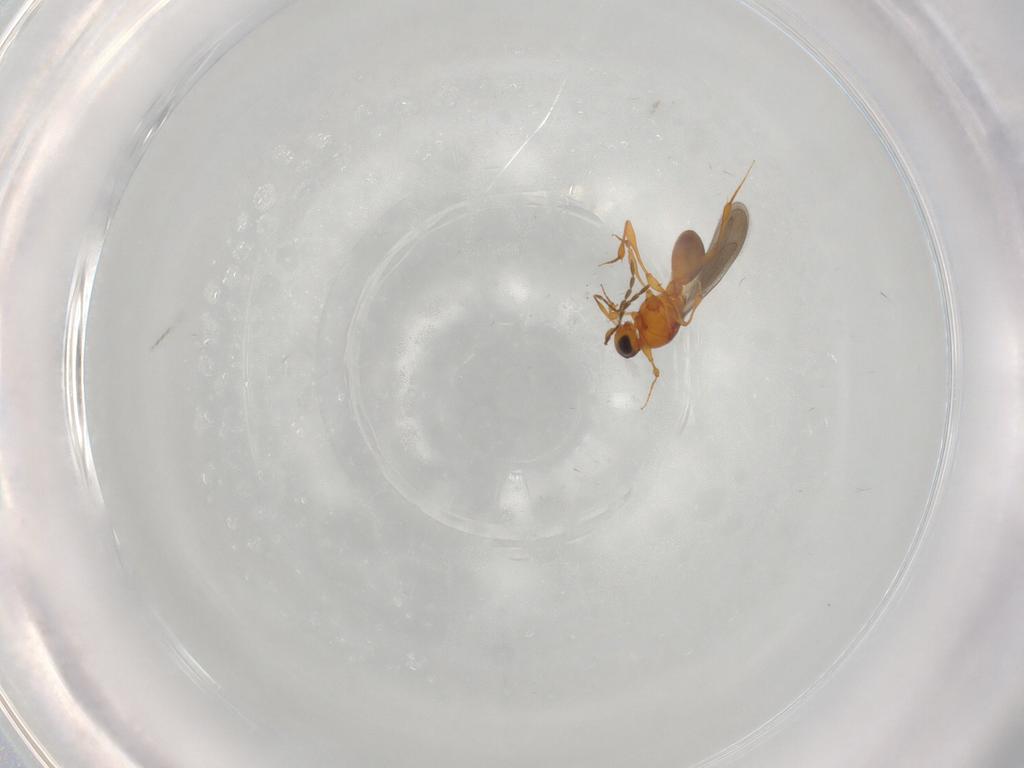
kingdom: Animalia
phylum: Arthropoda
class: Insecta
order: Hymenoptera
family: Platygastridae
